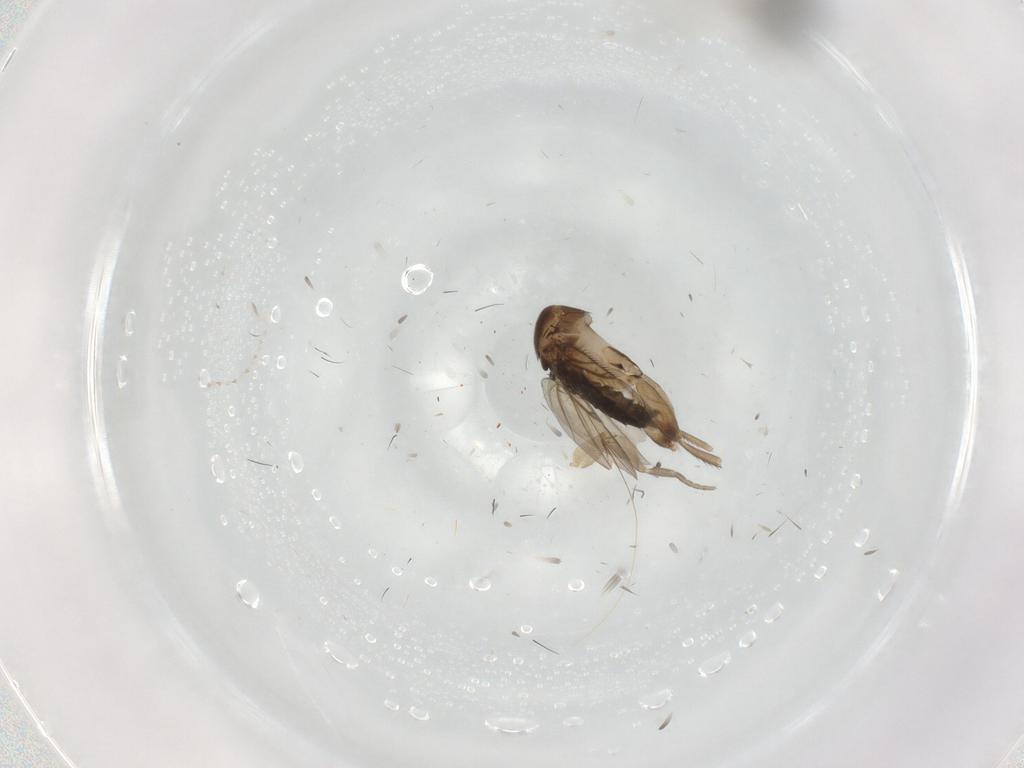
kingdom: Animalia
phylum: Arthropoda
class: Insecta
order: Diptera
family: Phoridae
